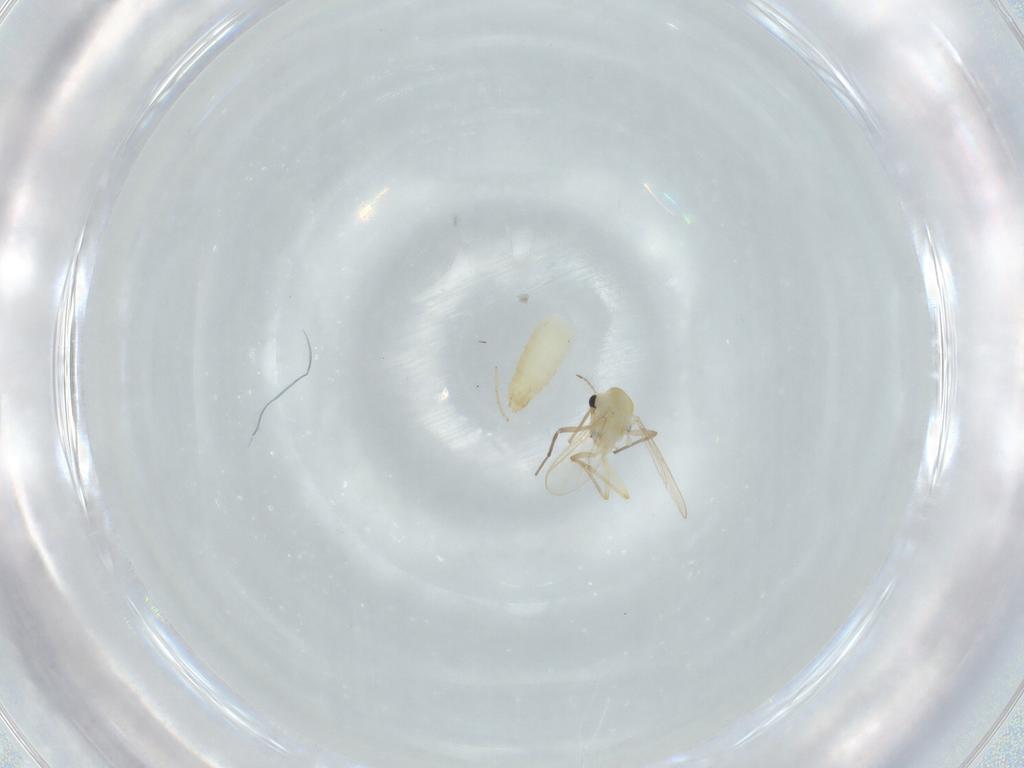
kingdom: Animalia
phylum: Arthropoda
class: Insecta
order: Diptera
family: Chironomidae
